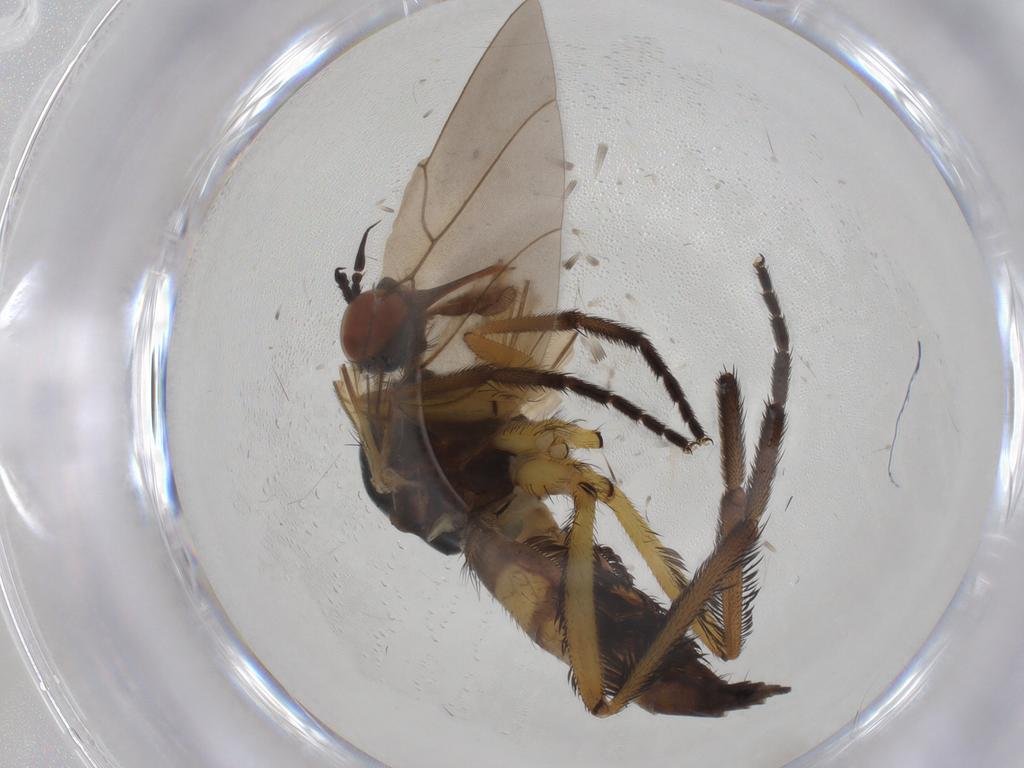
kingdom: Animalia
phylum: Arthropoda
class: Insecta
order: Diptera
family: Empididae
